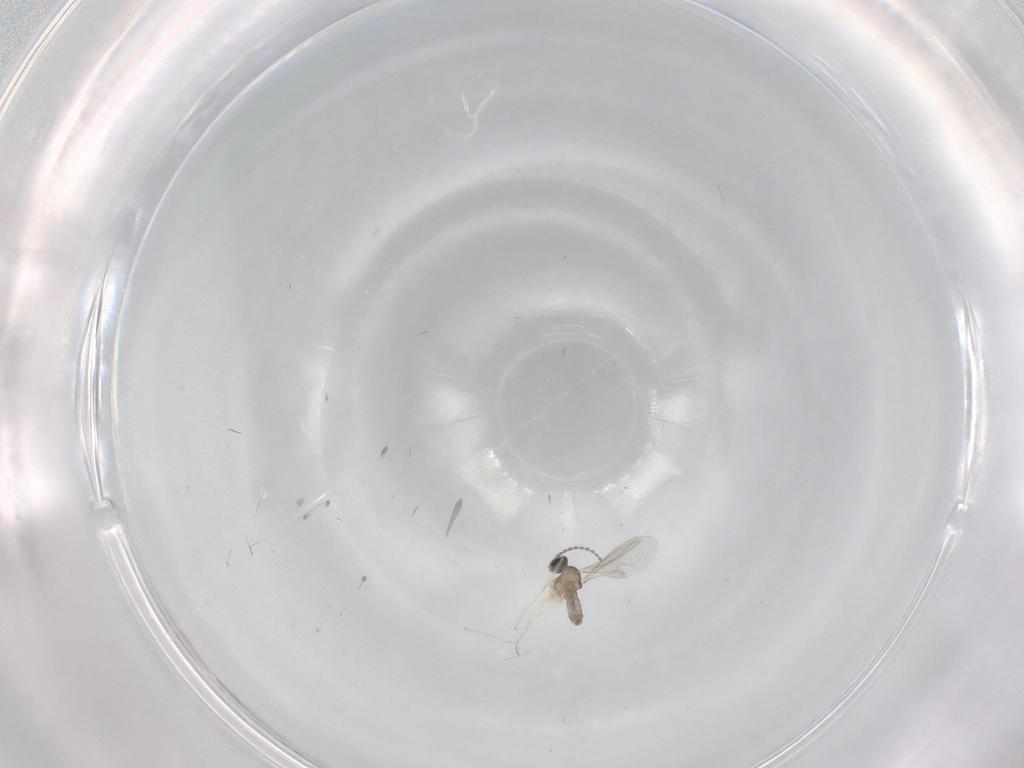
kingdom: Animalia
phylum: Arthropoda
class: Insecta
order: Diptera
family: Cecidomyiidae
